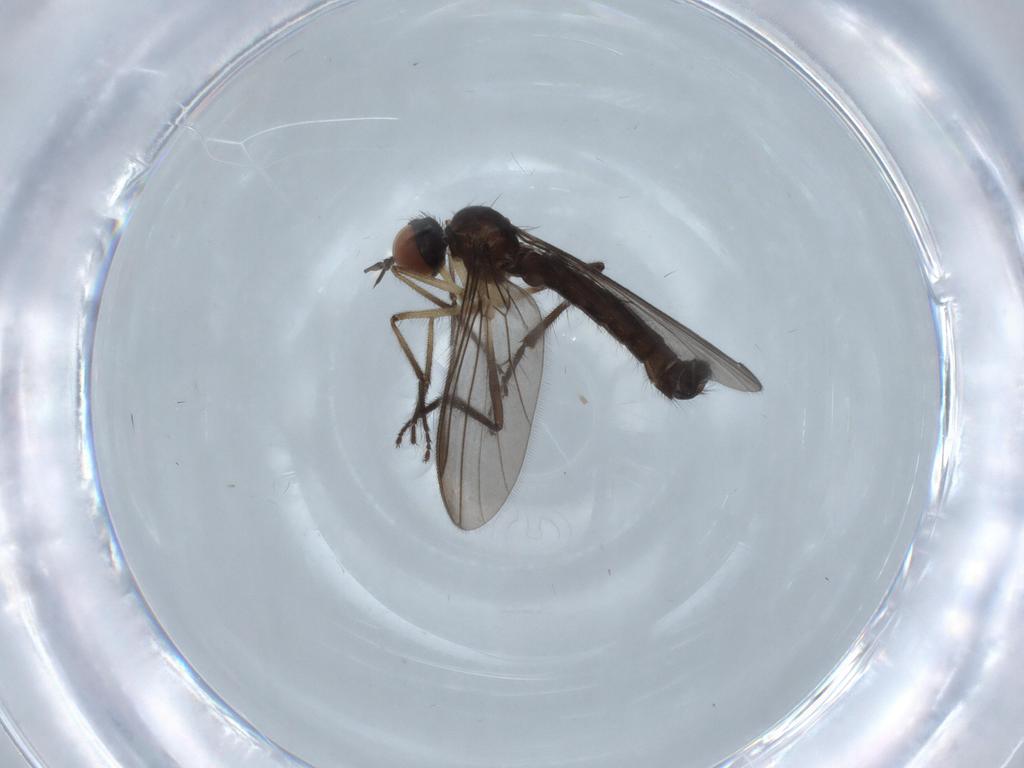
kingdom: Animalia
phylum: Arthropoda
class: Insecta
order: Diptera
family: Empididae
